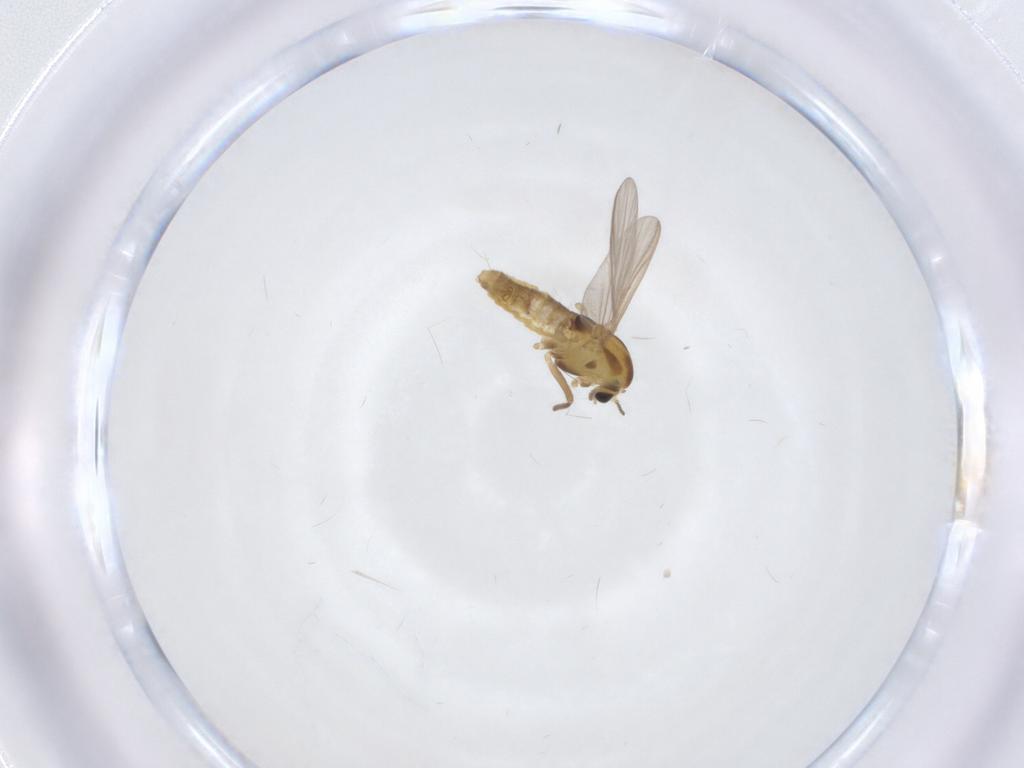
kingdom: Animalia
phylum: Arthropoda
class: Insecta
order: Diptera
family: Chironomidae
